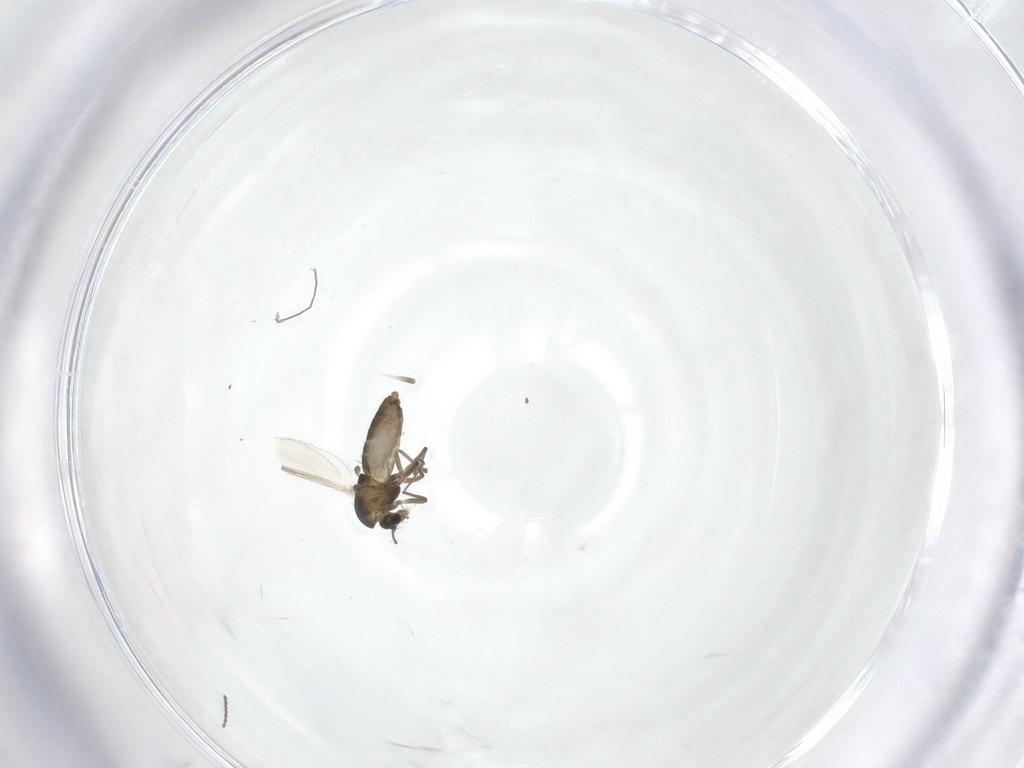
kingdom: Animalia
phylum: Arthropoda
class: Insecta
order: Diptera
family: Chironomidae
